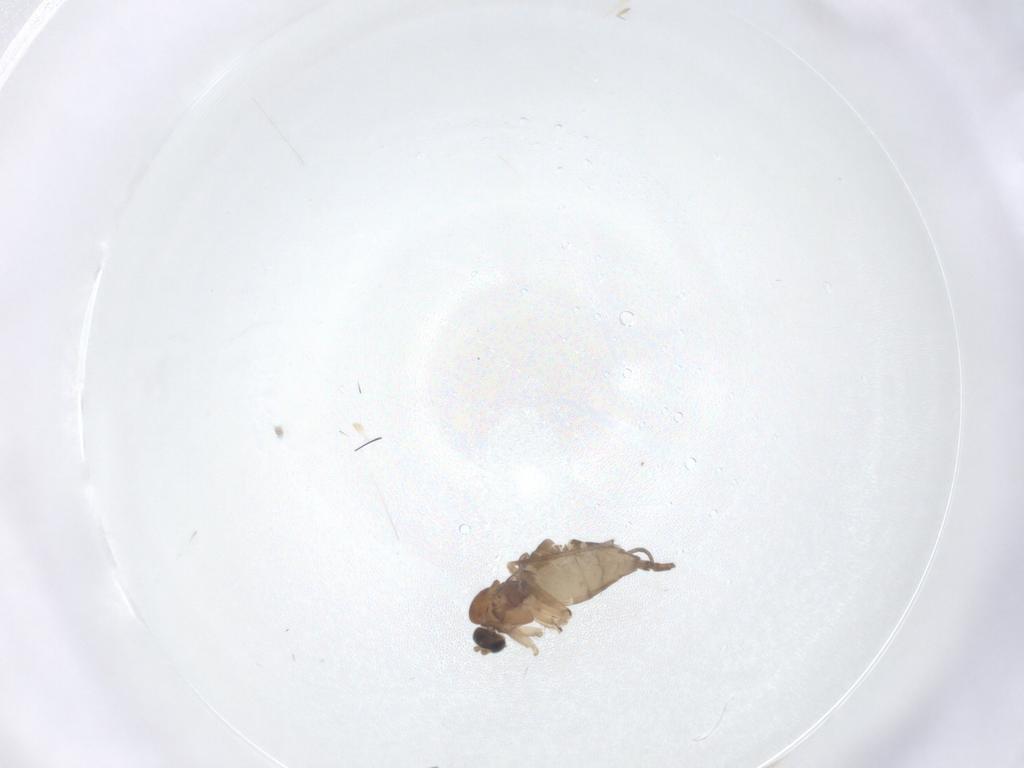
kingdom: Animalia
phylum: Arthropoda
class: Insecta
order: Diptera
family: Sciaridae
